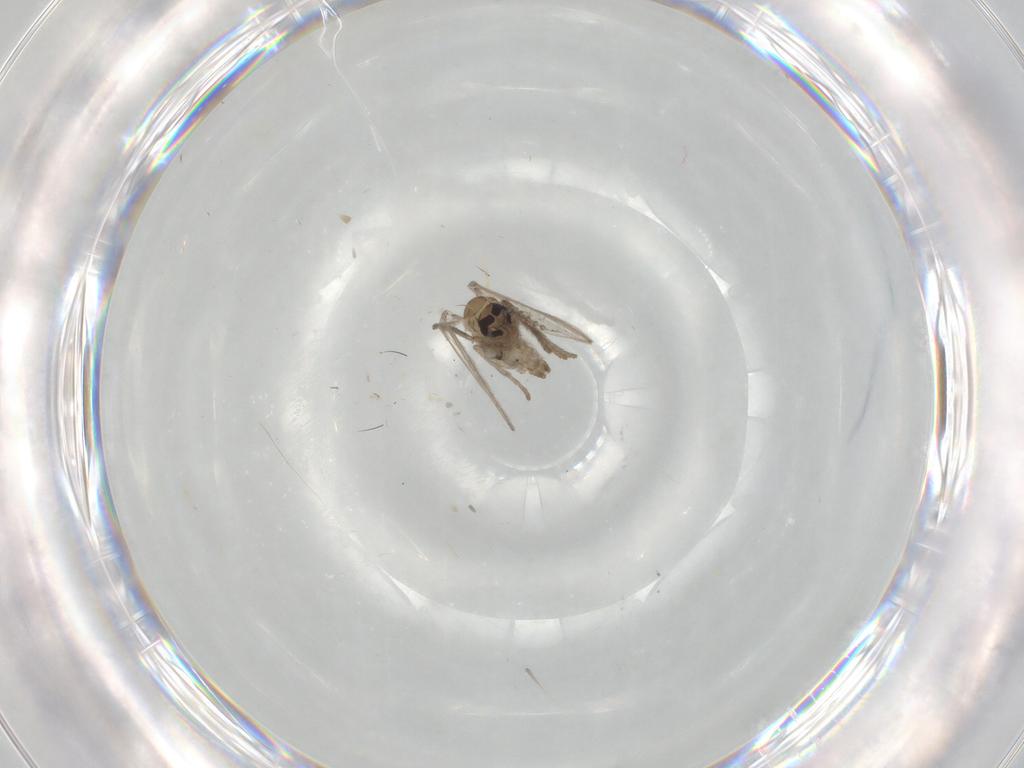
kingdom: Animalia
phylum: Arthropoda
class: Insecta
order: Diptera
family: Psychodidae
